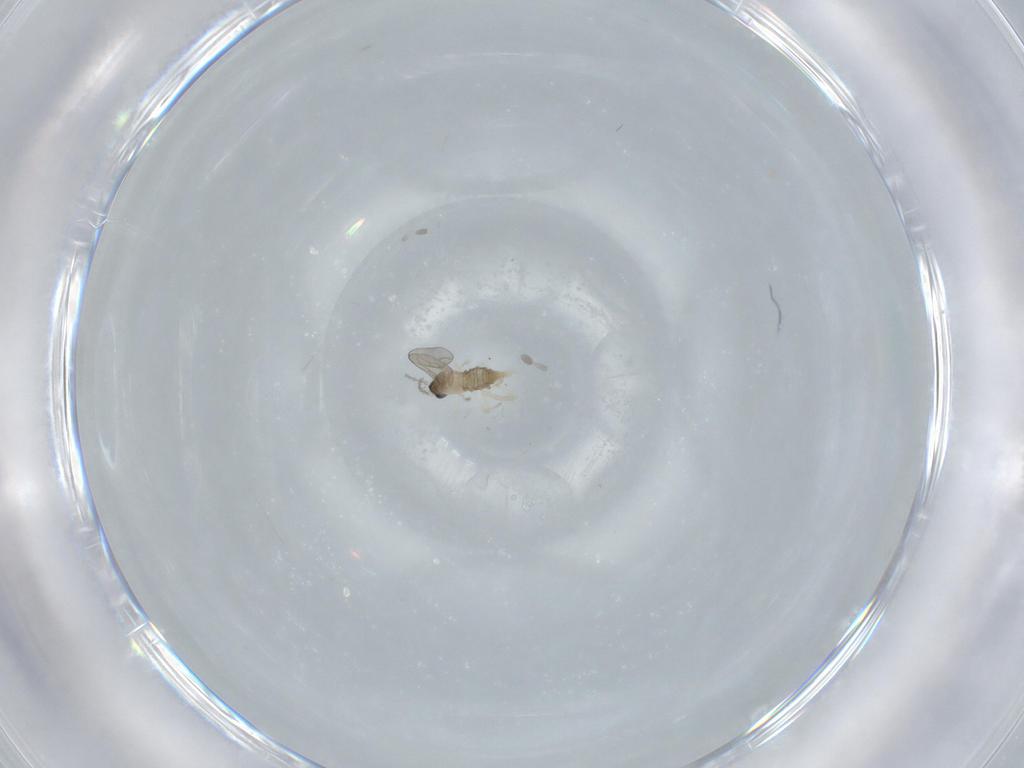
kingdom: Animalia
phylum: Arthropoda
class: Insecta
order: Diptera
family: Cecidomyiidae
